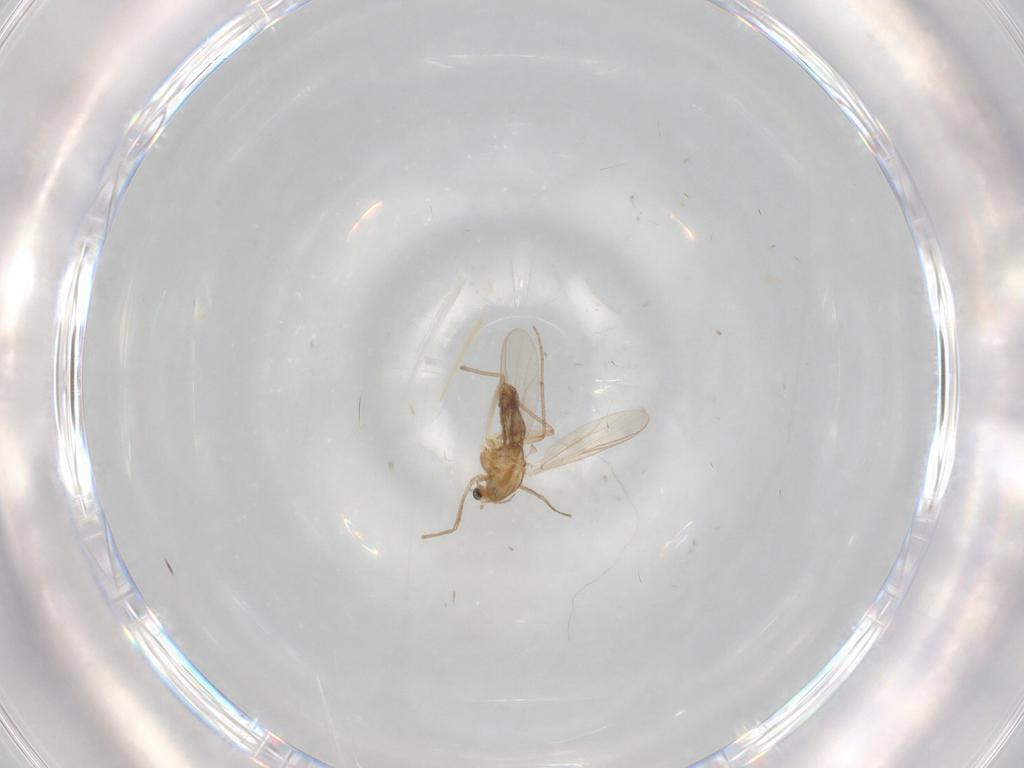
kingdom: Animalia
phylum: Arthropoda
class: Insecta
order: Diptera
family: Chironomidae
